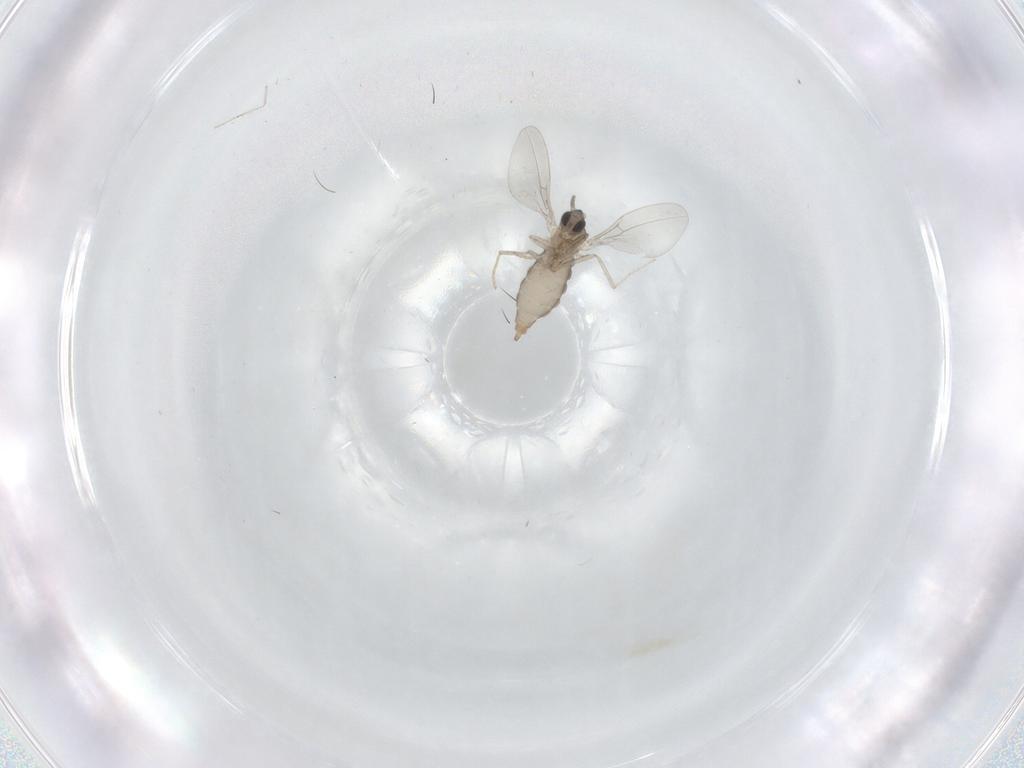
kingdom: Animalia
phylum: Arthropoda
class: Insecta
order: Diptera
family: Cecidomyiidae
